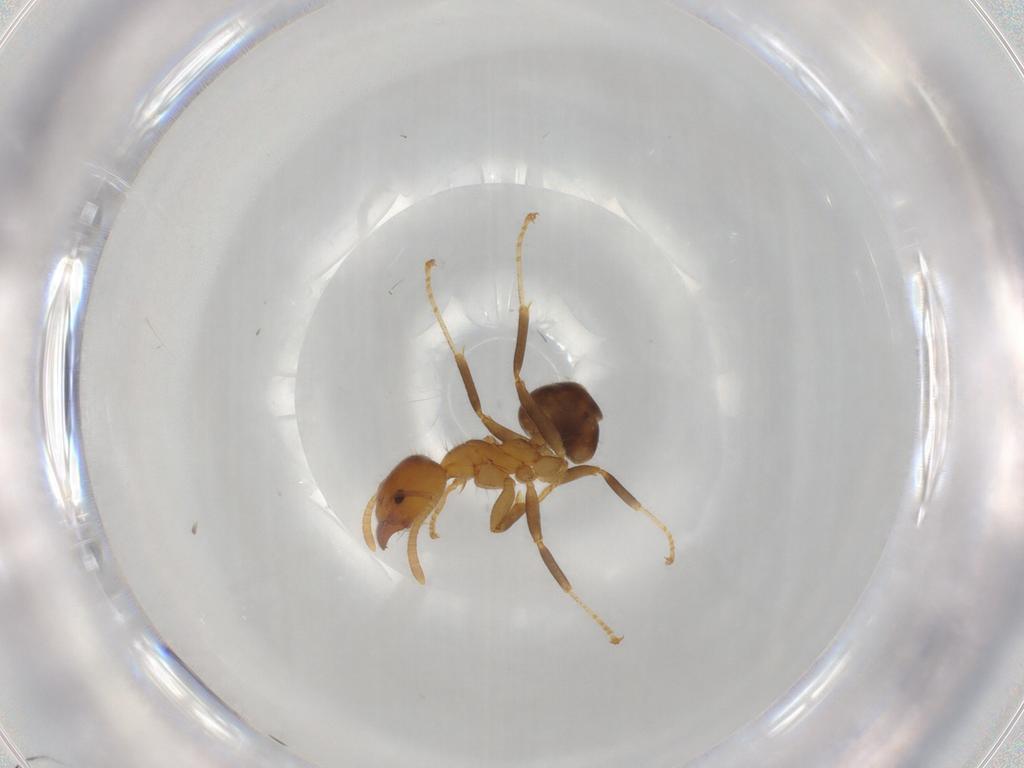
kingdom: Animalia
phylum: Arthropoda
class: Insecta
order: Hymenoptera
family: Formicidae
